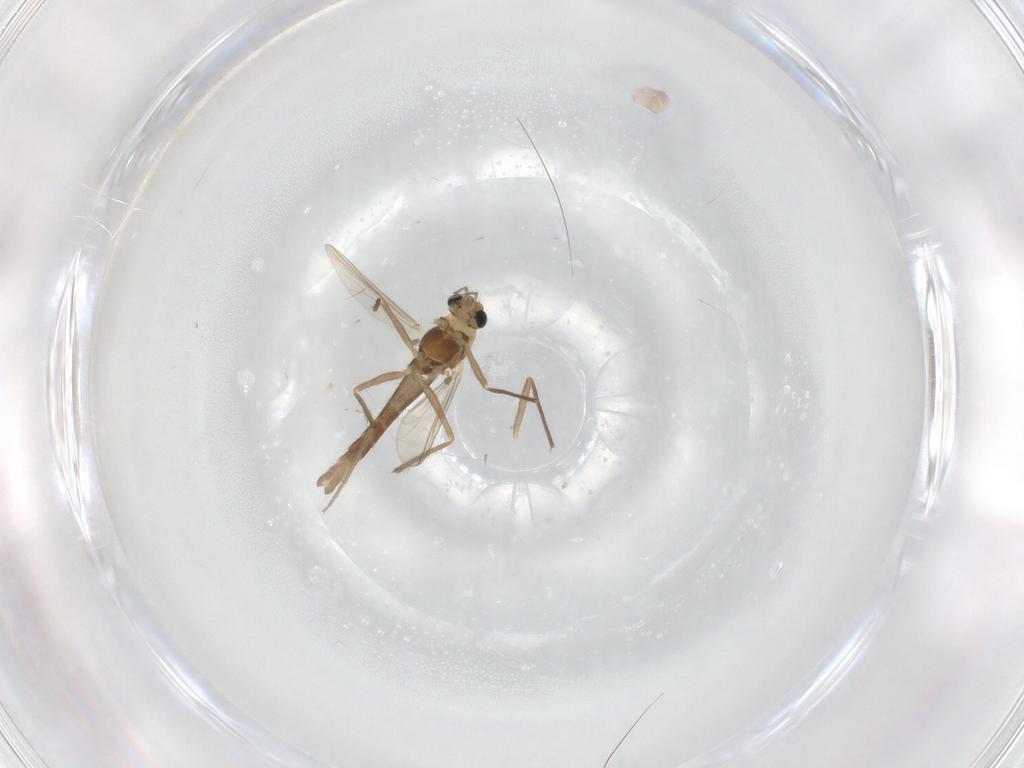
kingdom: Animalia
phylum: Arthropoda
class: Insecta
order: Diptera
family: Chironomidae
